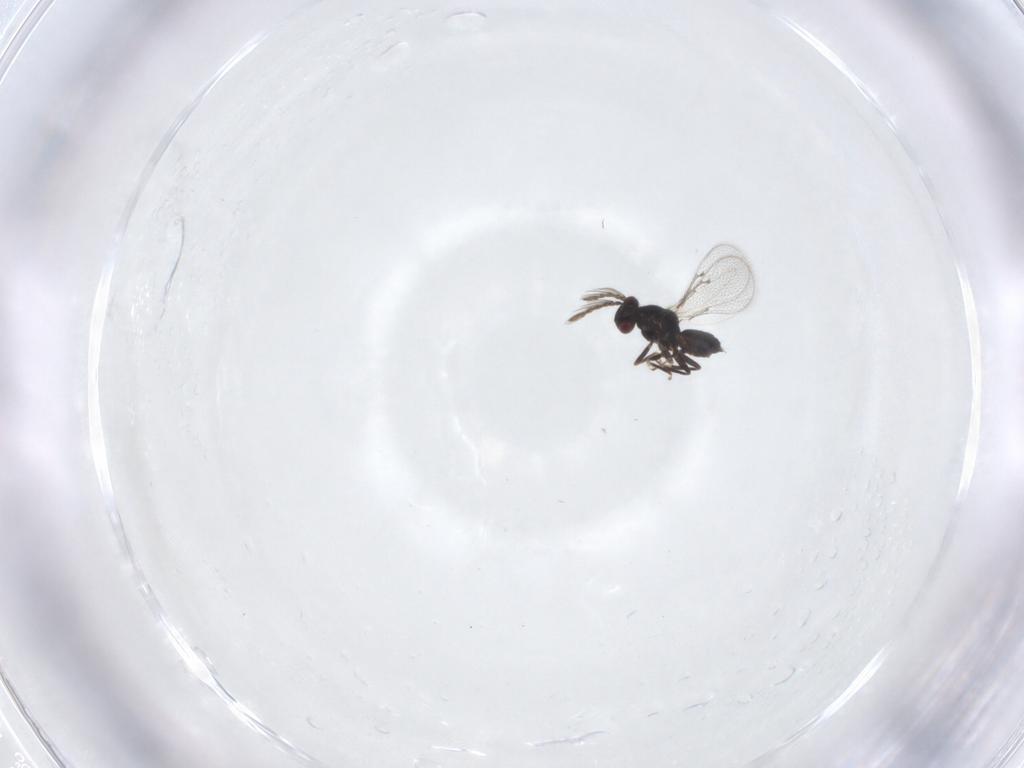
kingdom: Animalia
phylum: Arthropoda
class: Insecta
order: Hymenoptera
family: Eulophidae
